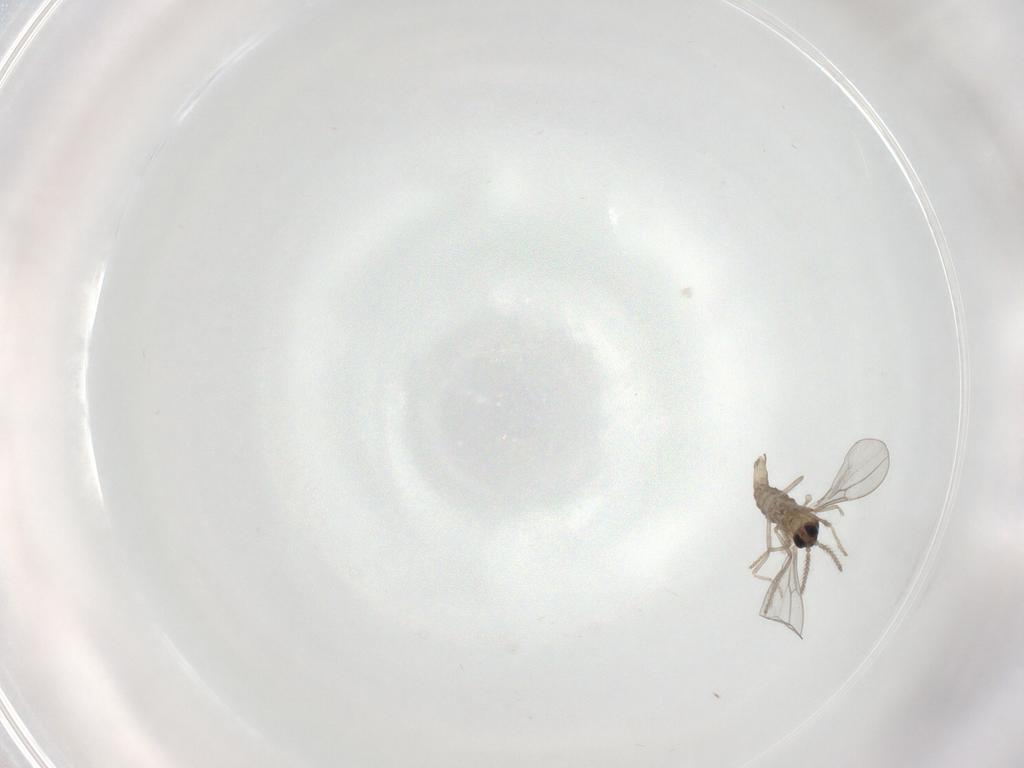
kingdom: Animalia
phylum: Arthropoda
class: Insecta
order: Diptera
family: Cecidomyiidae
